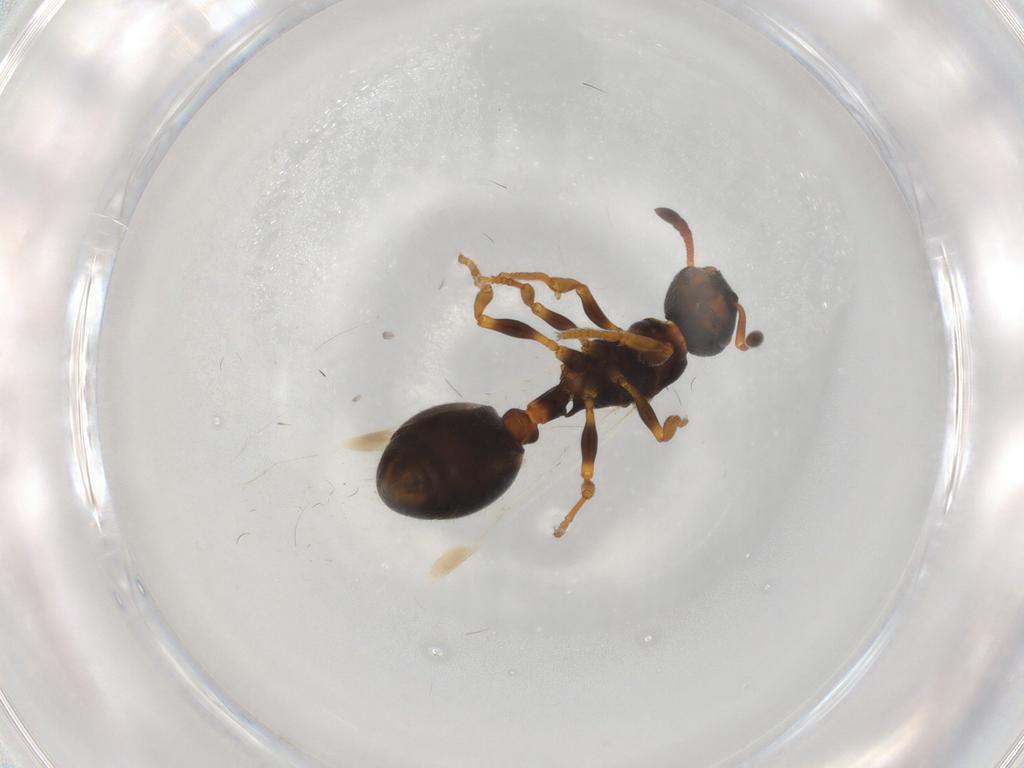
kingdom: Animalia
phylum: Arthropoda
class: Insecta
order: Hymenoptera
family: Formicidae
